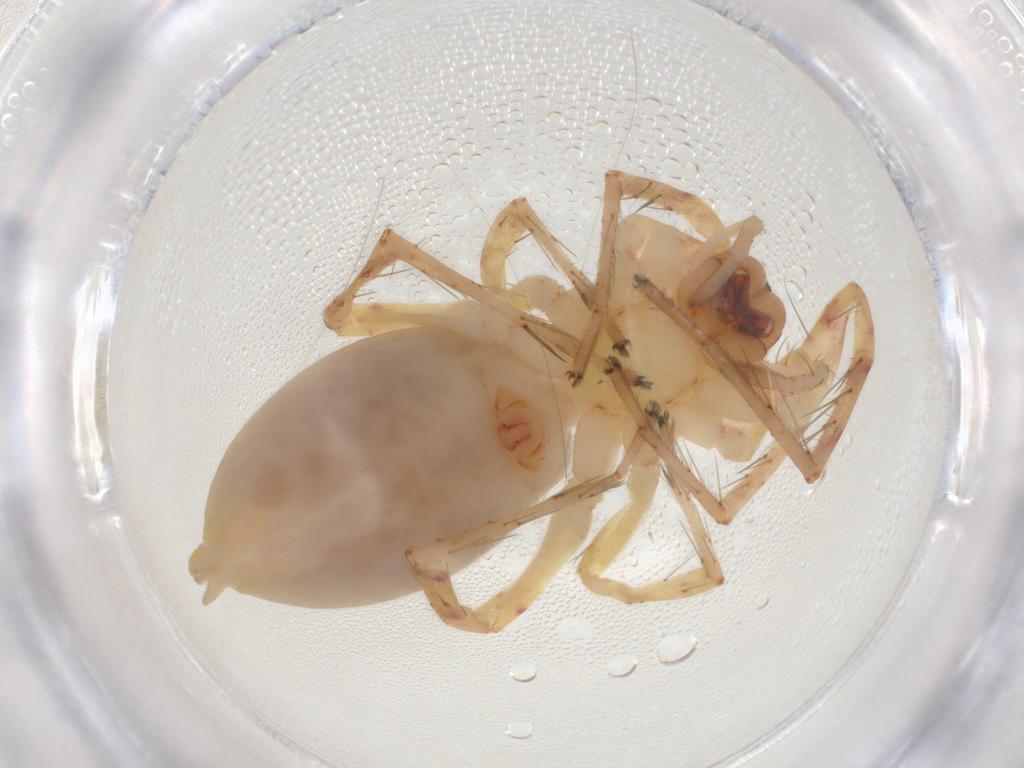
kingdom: Animalia
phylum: Arthropoda
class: Arachnida
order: Araneae
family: Anyphaenidae
